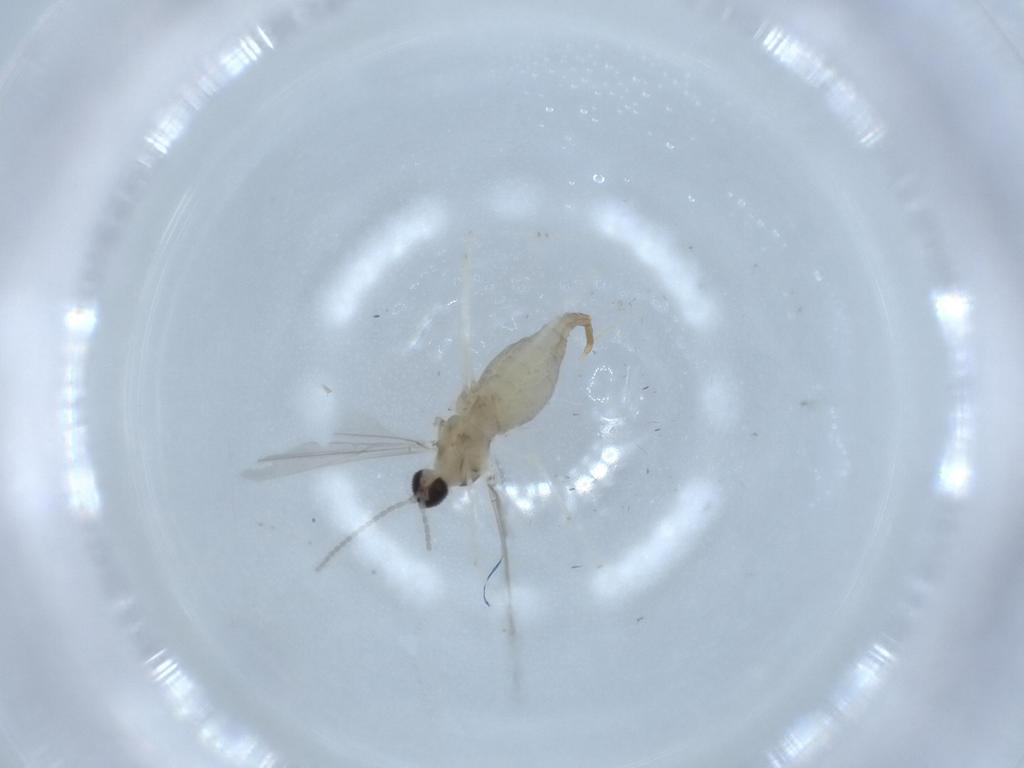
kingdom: Animalia
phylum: Arthropoda
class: Insecta
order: Diptera
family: Cecidomyiidae
